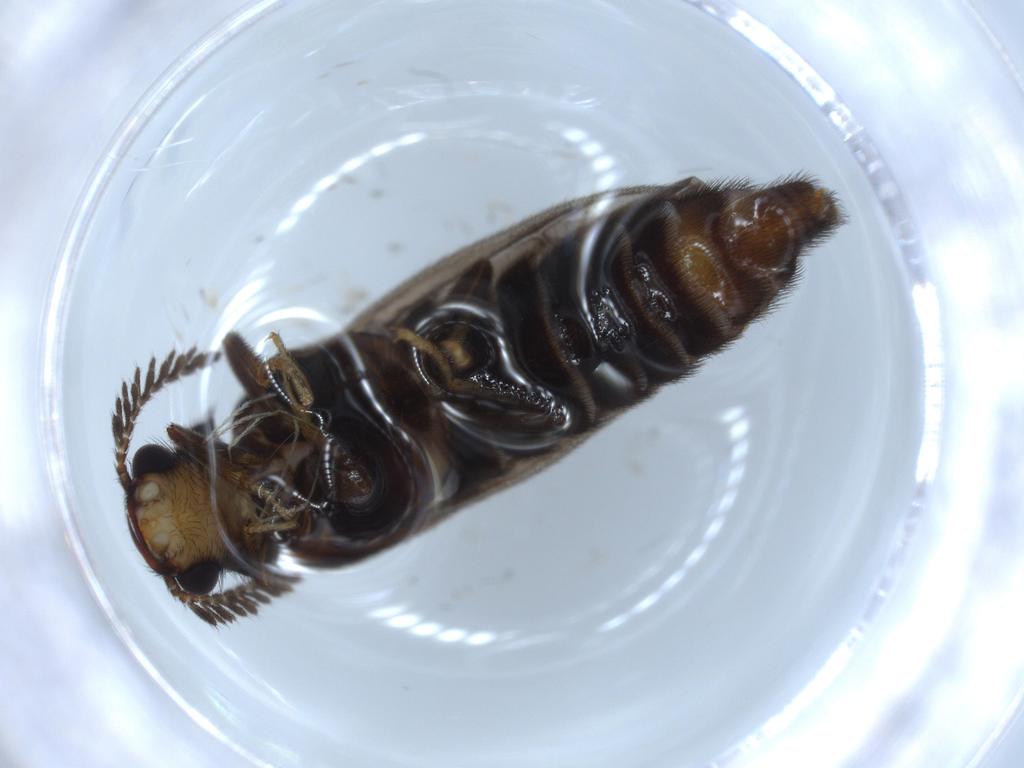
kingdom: Animalia
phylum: Arthropoda
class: Insecta
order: Coleoptera
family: Phengodidae
